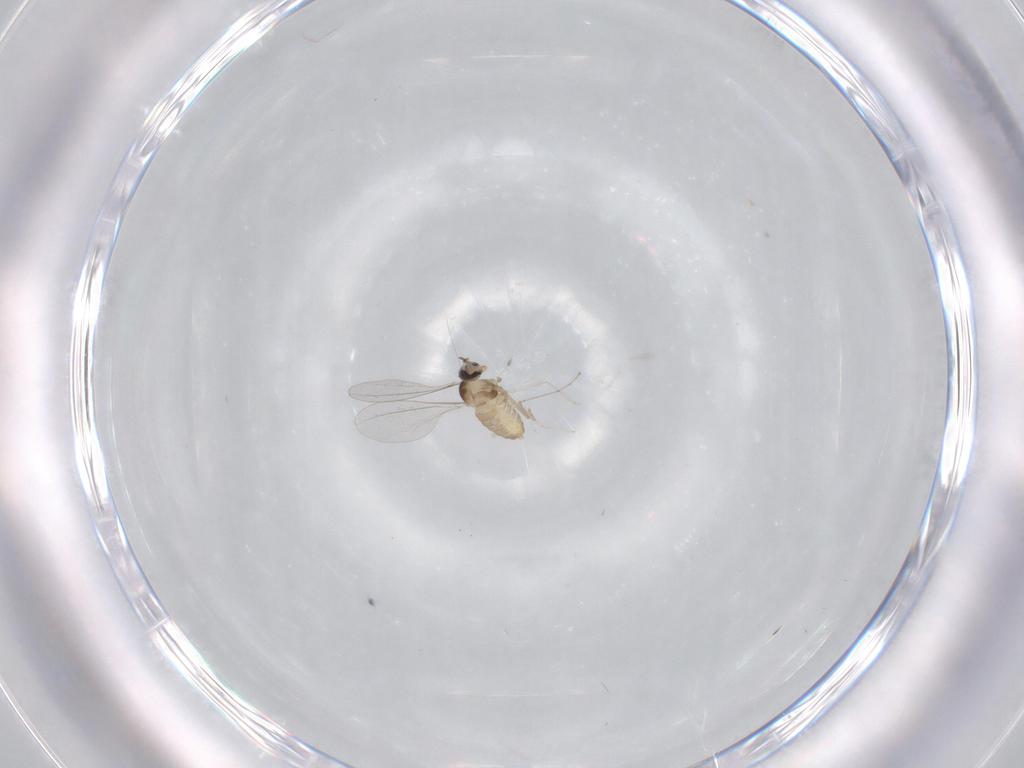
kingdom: Animalia
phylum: Arthropoda
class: Insecta
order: Diptera
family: Cecidomyiidae
